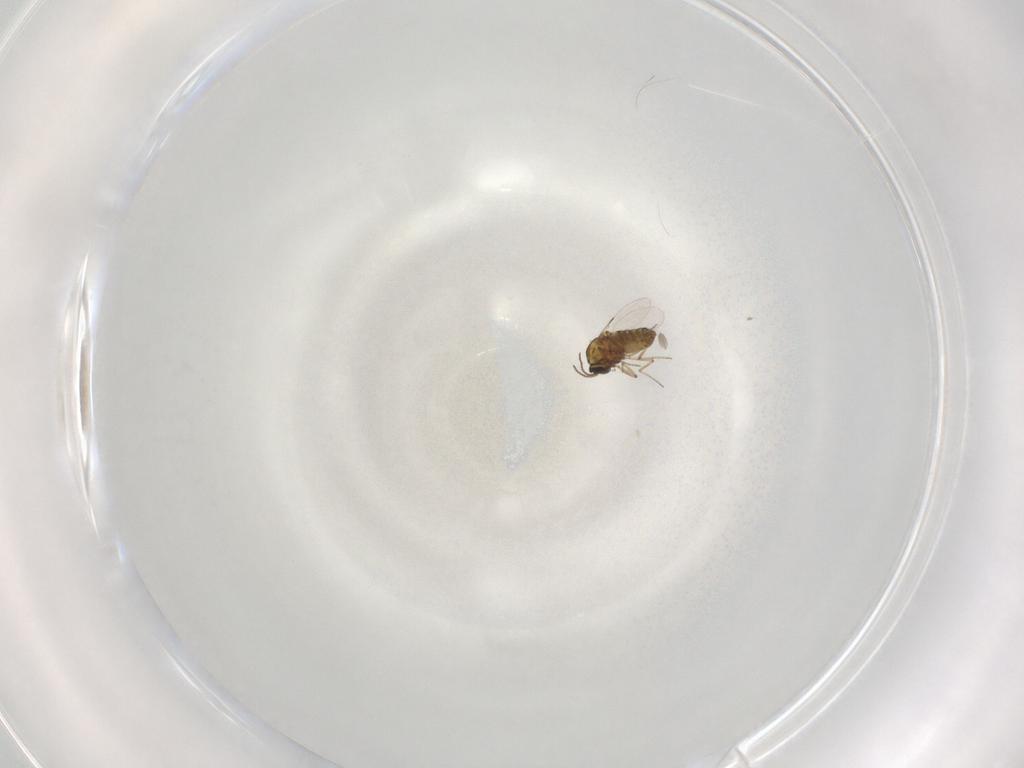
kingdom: Animalia
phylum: Arthropoda
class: Insecta
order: Diptera
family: Ceratopogonidae
